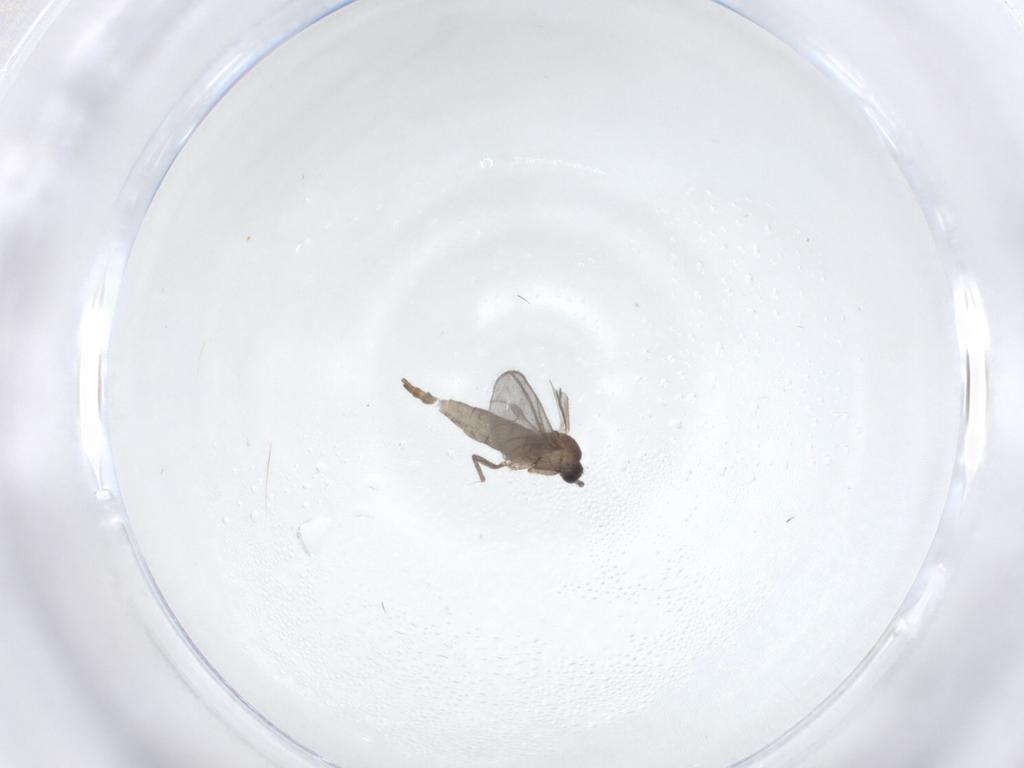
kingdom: Animalia
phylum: Arthropoda
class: Insecta
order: Diptera
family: Sciaridae
